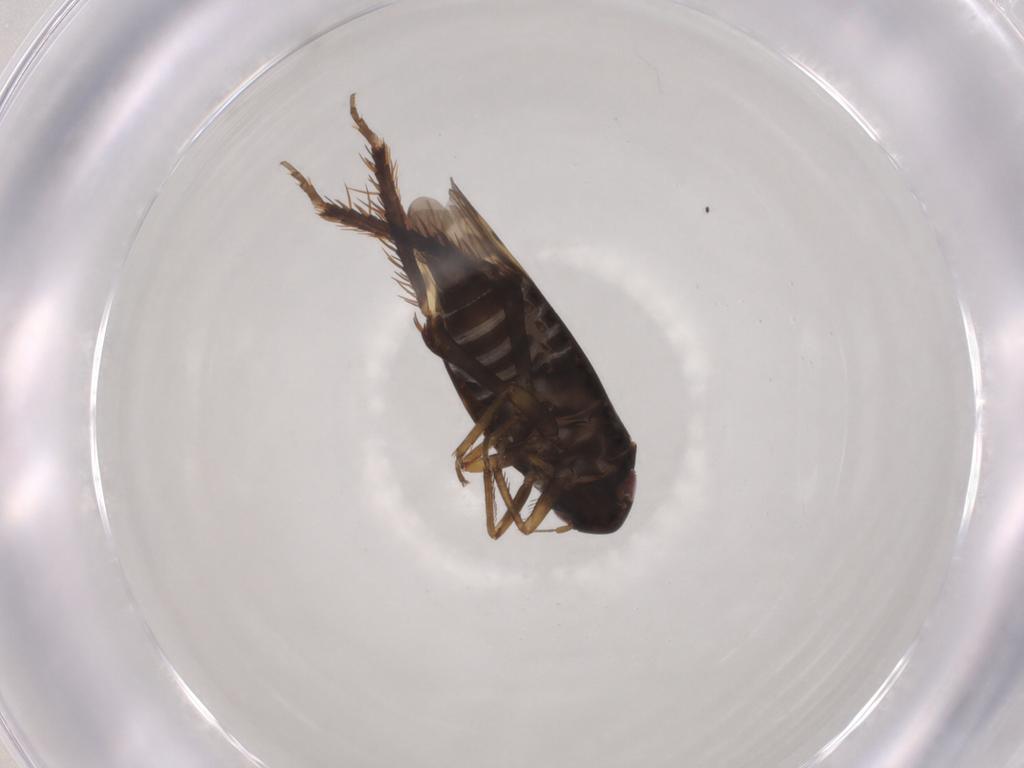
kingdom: Animalia
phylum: Arthropoda
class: Insecta
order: Hemiptera
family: Cicadellidae
